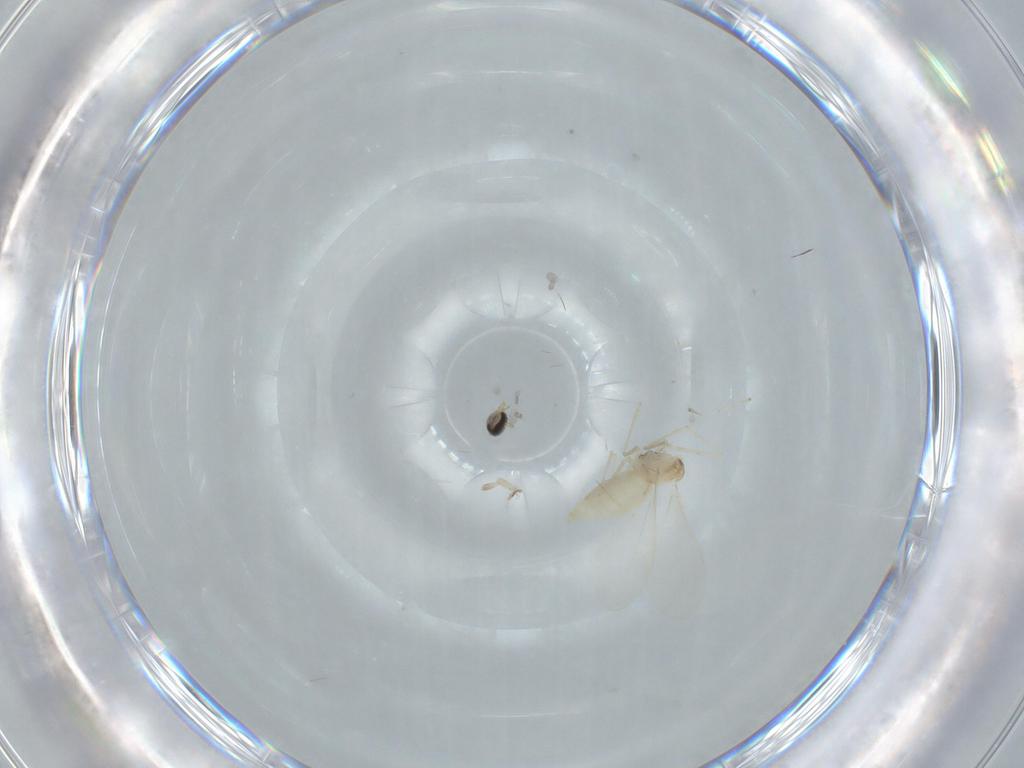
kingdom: Animalia
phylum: Arthropoda
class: Insecta
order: Diptera
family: Cecidomyiidae
